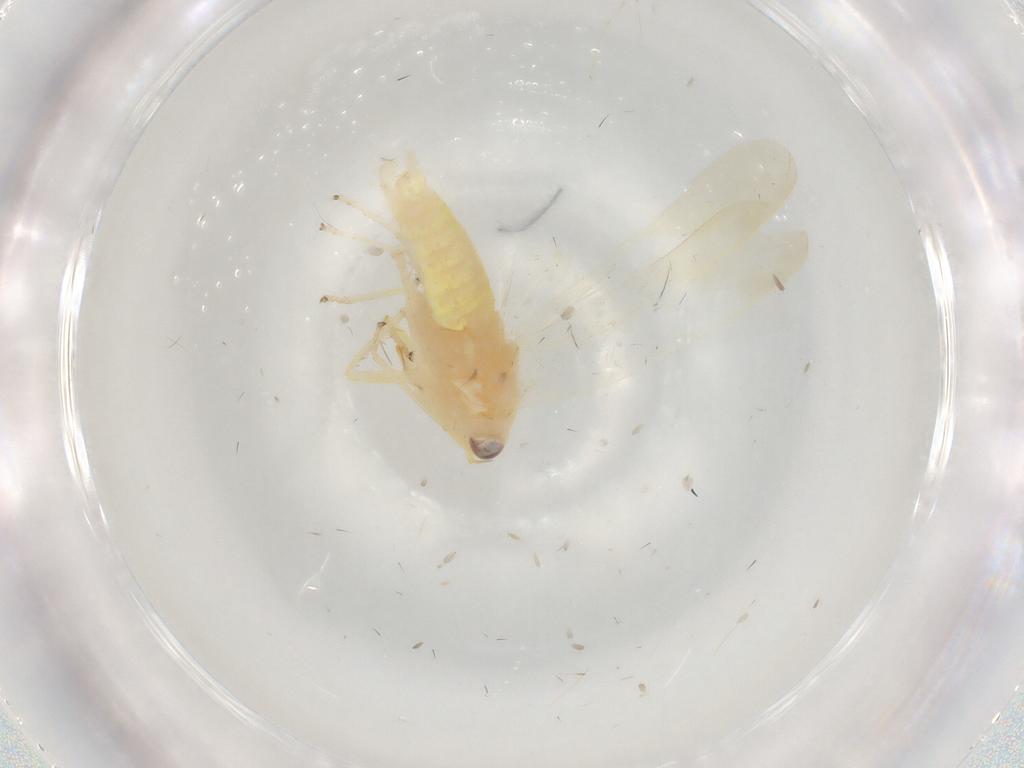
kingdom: Animalia
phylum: Arthropoda
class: Insecta
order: Hemiptera
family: Cicadellidae
